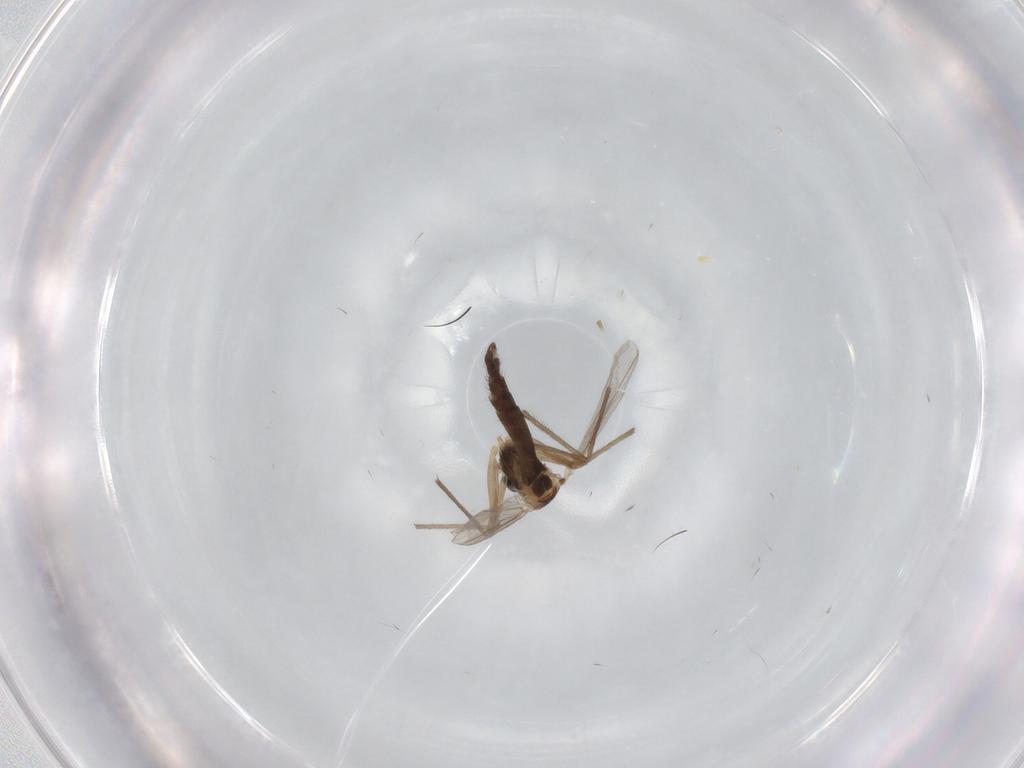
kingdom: Animalia
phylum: Arthropoda
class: Insecta
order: Diptera
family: Chironomidae
